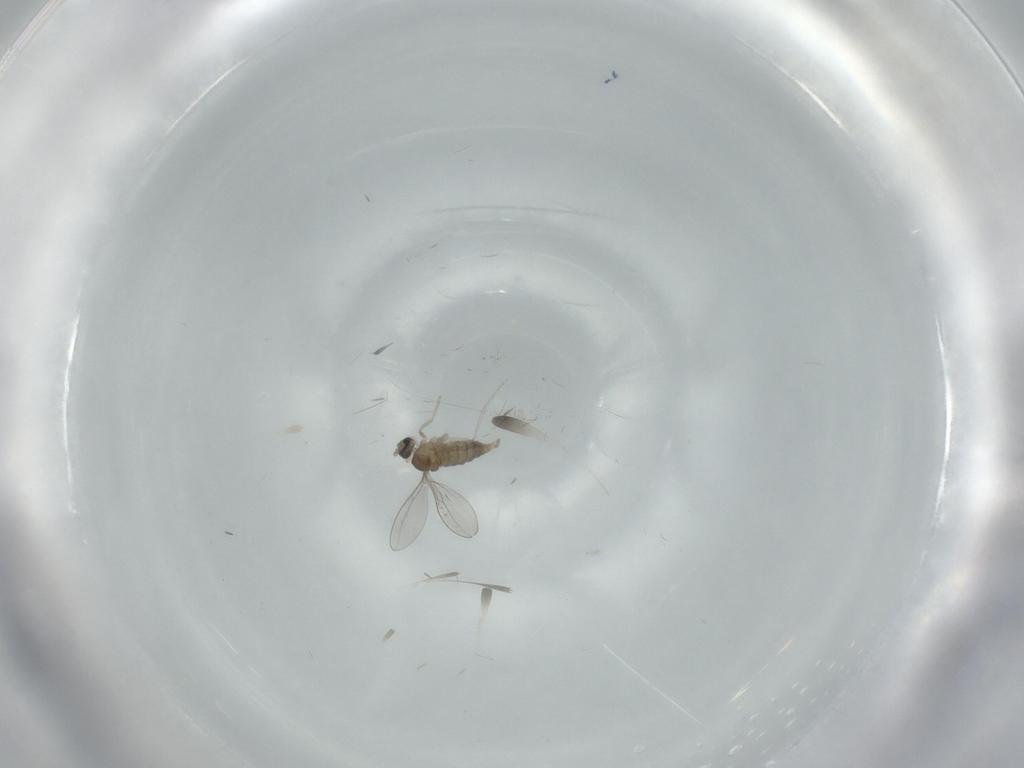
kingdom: Animalia
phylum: Arthropoda
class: Insecta
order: Diptera
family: Cecidomyiidae
